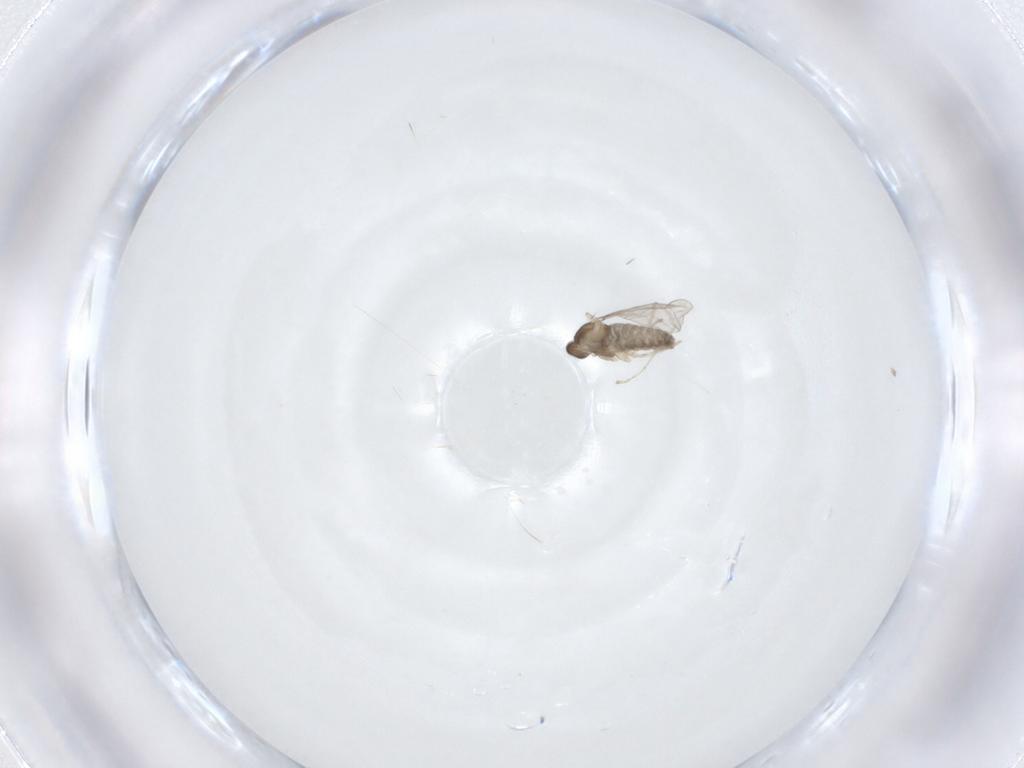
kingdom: Animalia
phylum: Arthropoda
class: Insecta
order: Diptera
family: Cecidomyiidae
